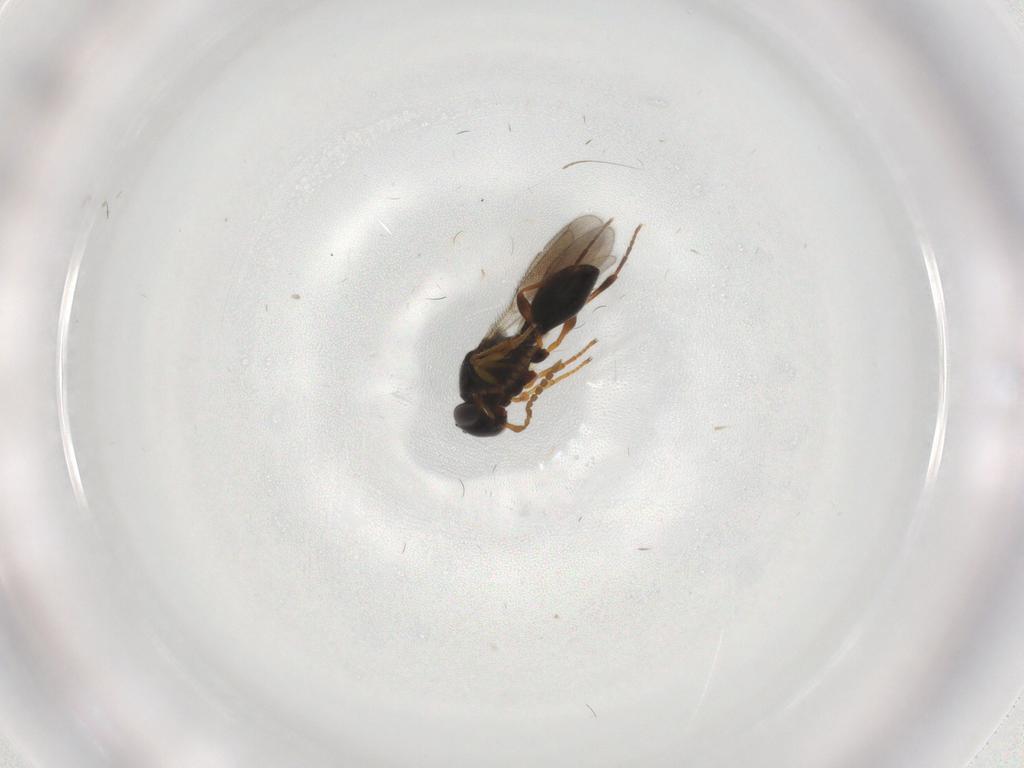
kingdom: Animalia
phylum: Arthropoda
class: Insecta
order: Hymenoptera
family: Platygastridae
